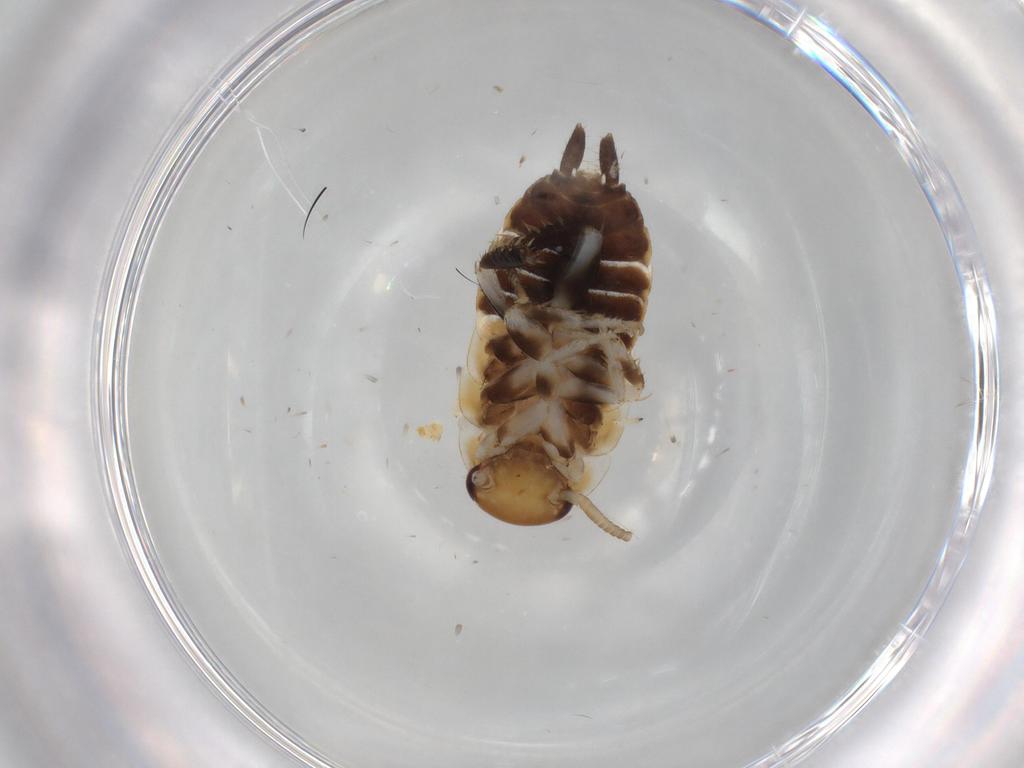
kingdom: Animalia
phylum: Arthropoda
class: Insecta
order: Blattodea
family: Ectobiidae
